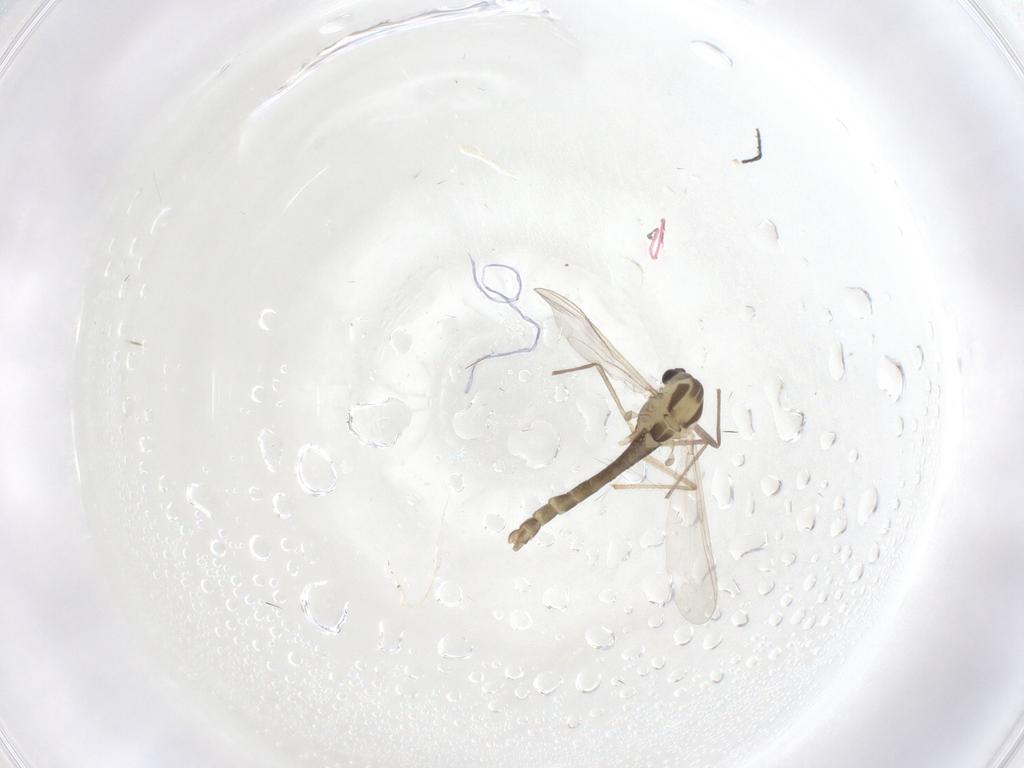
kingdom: Animalia
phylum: Arthropoda
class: Insecta
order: Diptera
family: Chironomidae
